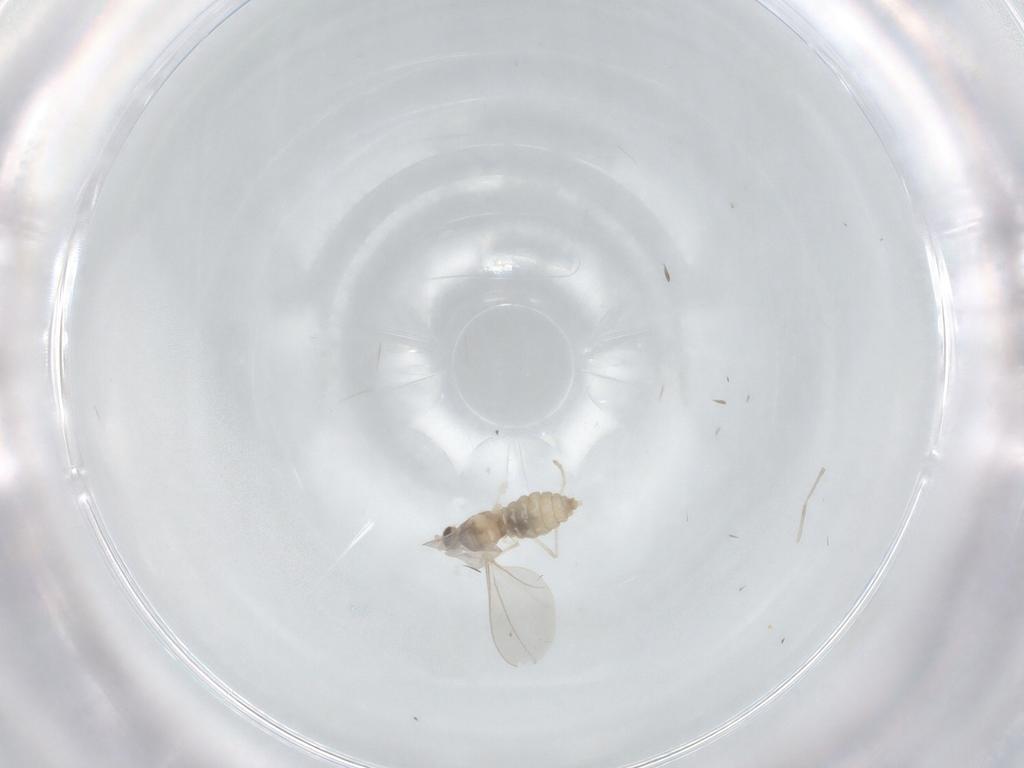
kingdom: Animalia
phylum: Arthropoda
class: Insecta
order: Diptera
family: Cecidomyiidae
